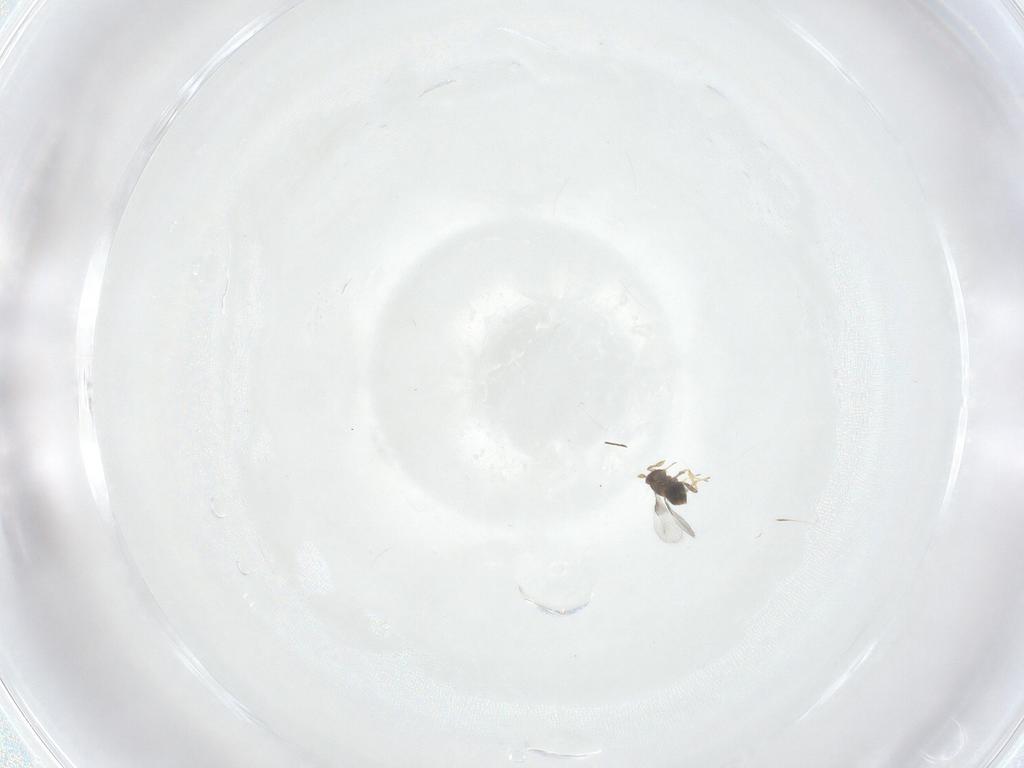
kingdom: Animalia
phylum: Arthropoda
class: Insecta
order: Hymenoptera
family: Trichogrammatidae
